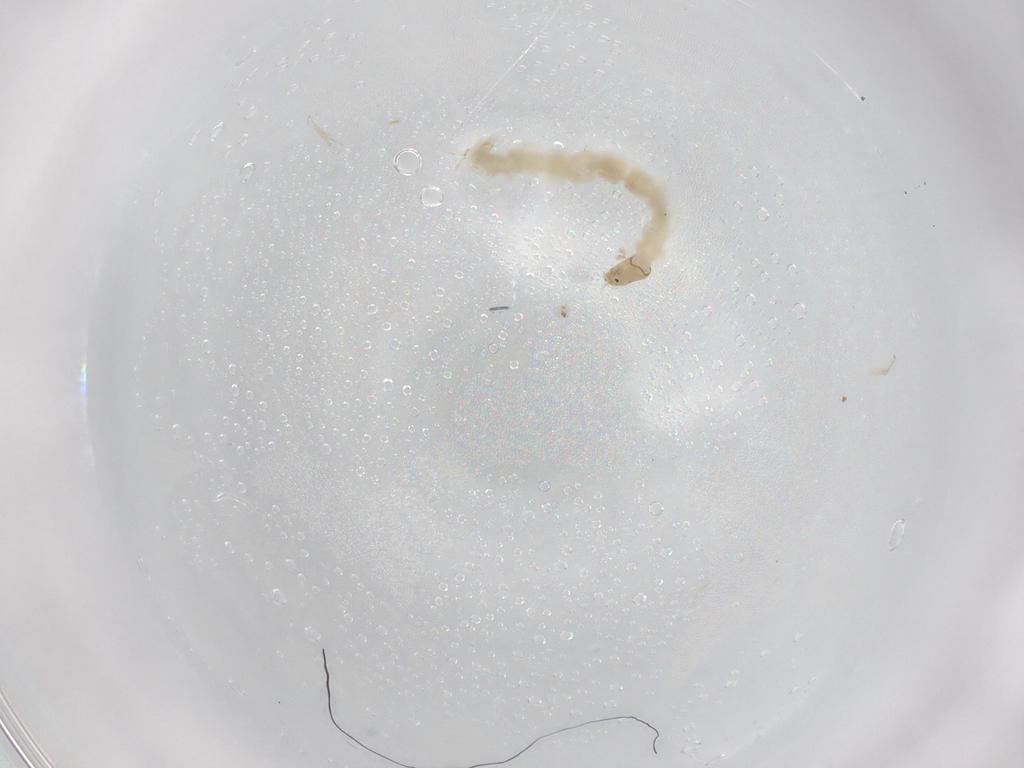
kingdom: Animalia
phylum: Arthropoda
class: Insecta
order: Diptera
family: Chironomidae
